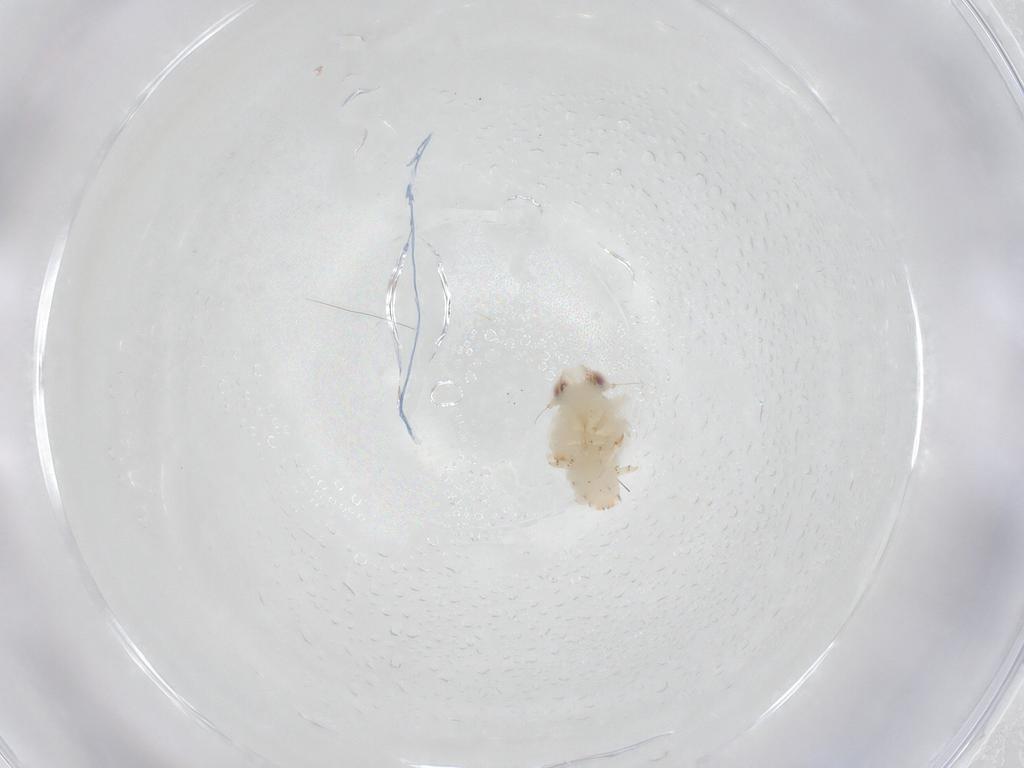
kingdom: Animalia
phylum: Arthropoda
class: Insecta
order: Hemiptera
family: Nogodinidae
